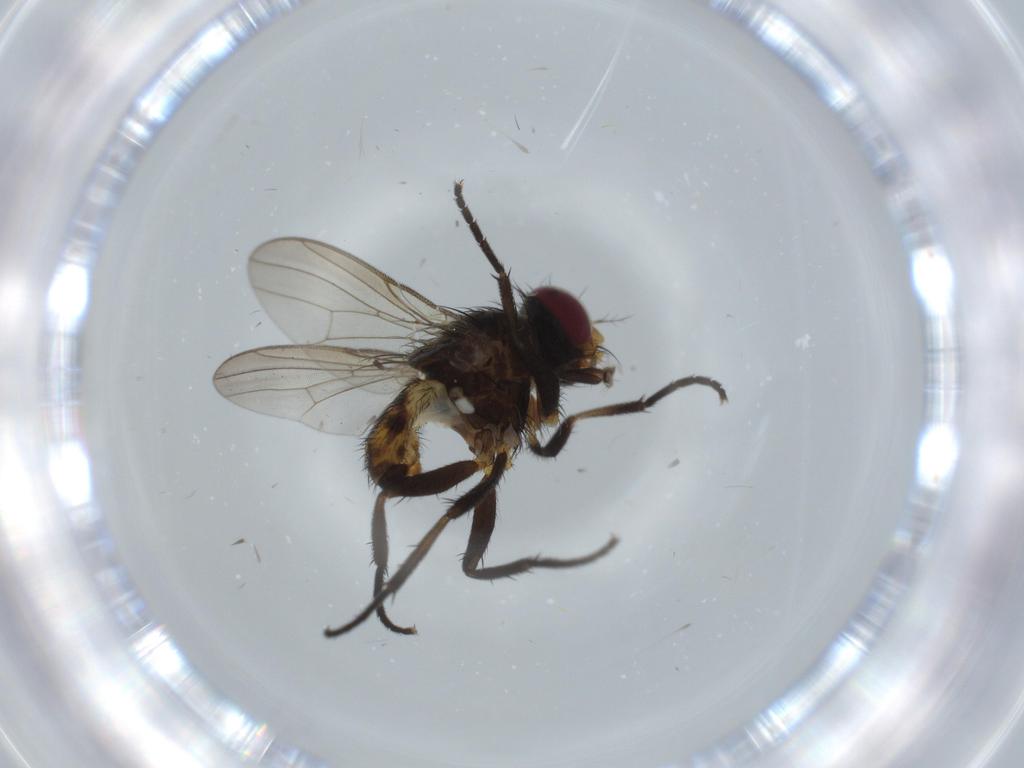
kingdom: Animalia
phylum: Arthropoda
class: Insecta
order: Diptera
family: Anthomyiidae
